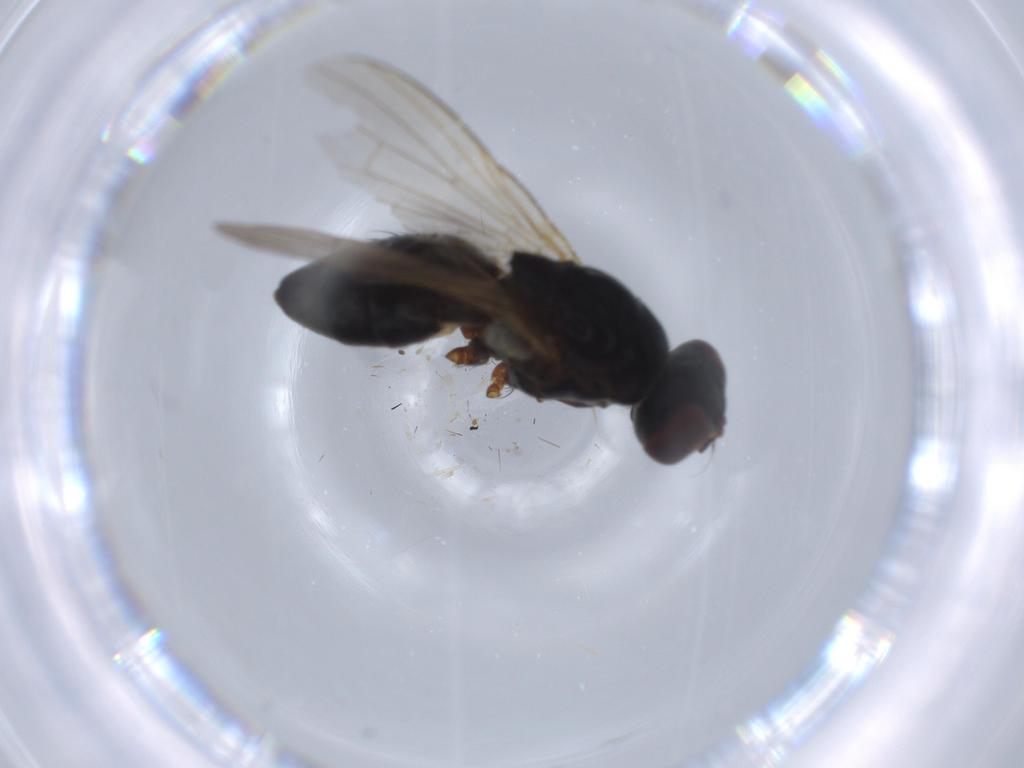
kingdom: Animalia
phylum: Arthropoda
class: Insecta
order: Diptera
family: Muscidae
